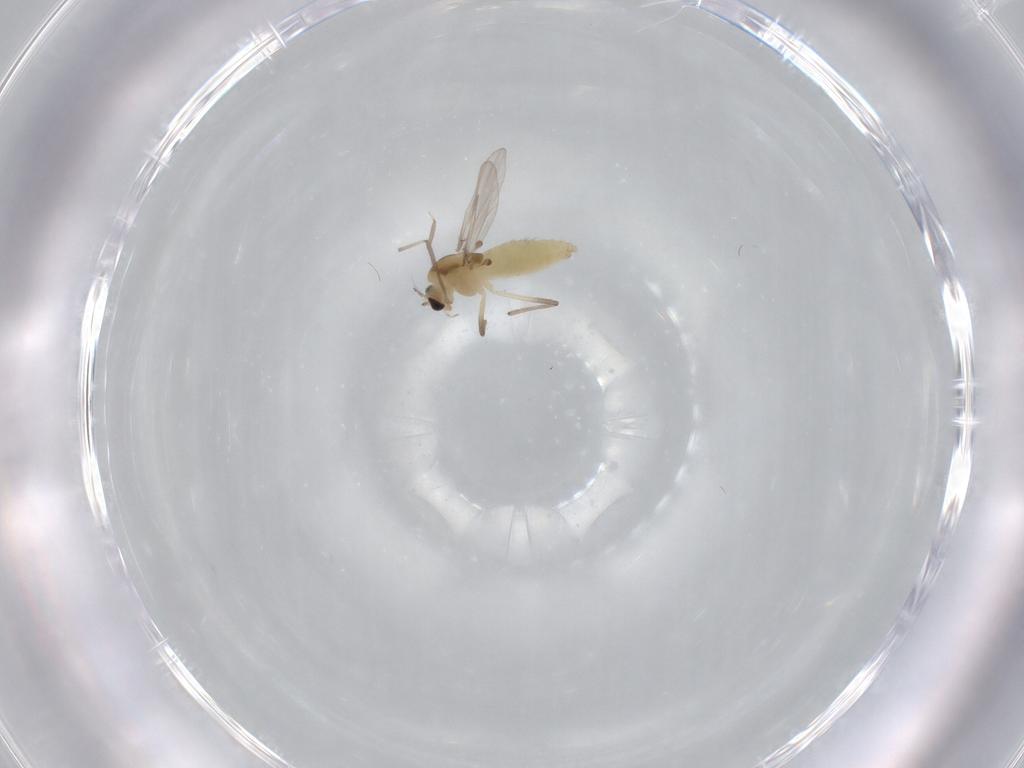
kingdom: Animalia
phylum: Arthropoda
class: Insecta
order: Diptera
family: Chironomidae
